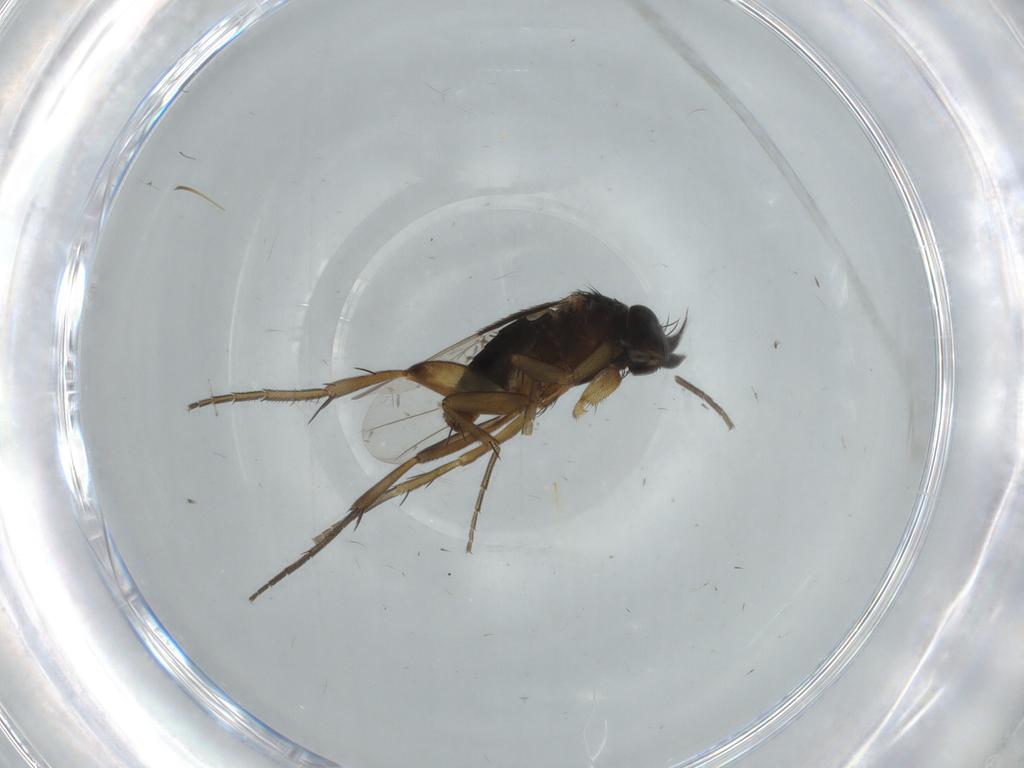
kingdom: Animalia
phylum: Arthropoda
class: Insecta
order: Diptera
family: Phoridae
